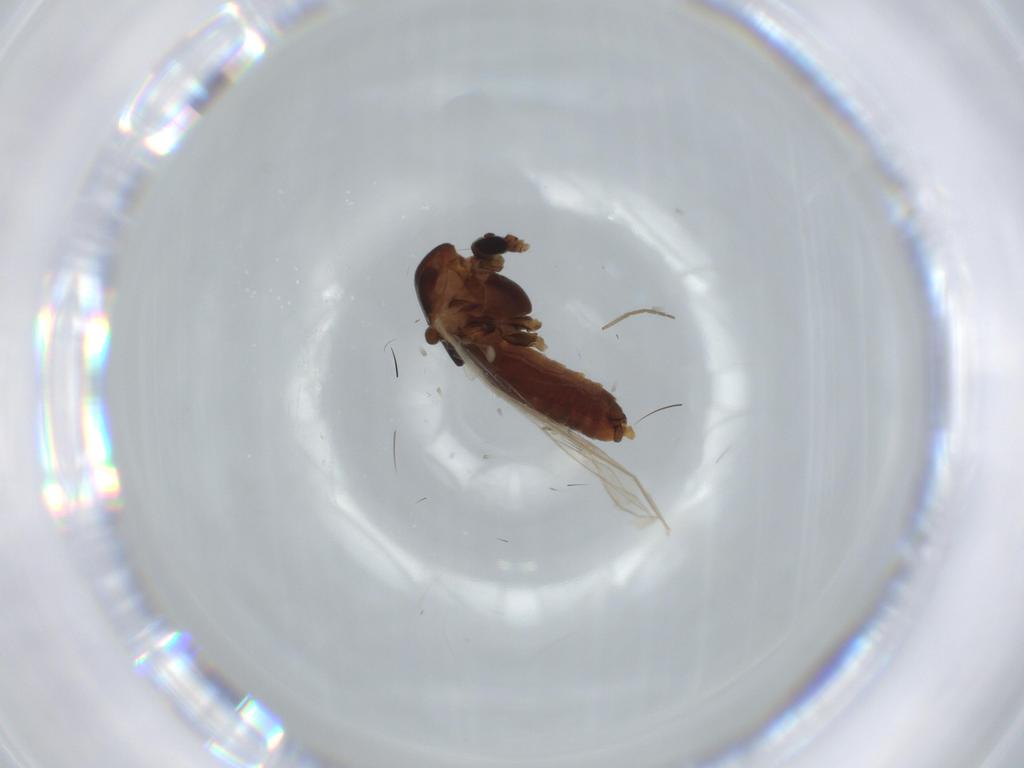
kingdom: Animalia
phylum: Arthropoda
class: Insecta
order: Diptera
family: Chironomidae
